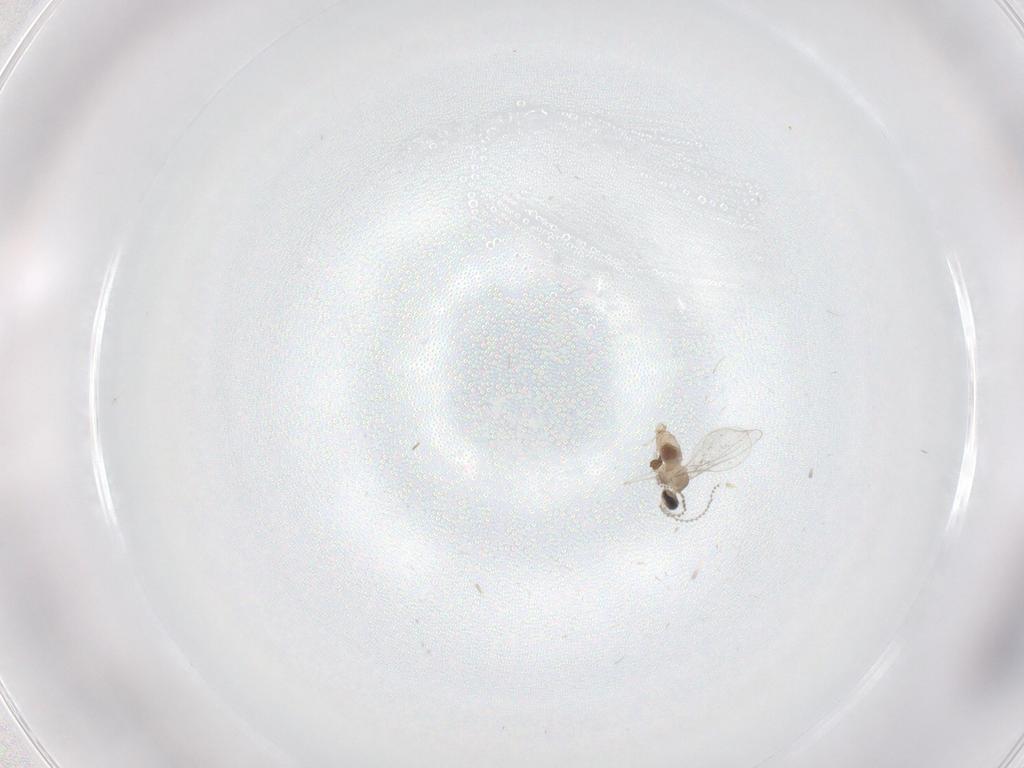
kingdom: Animalia
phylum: Arthropoda
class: Insecta
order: Diptera
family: Cecidomyiidae
